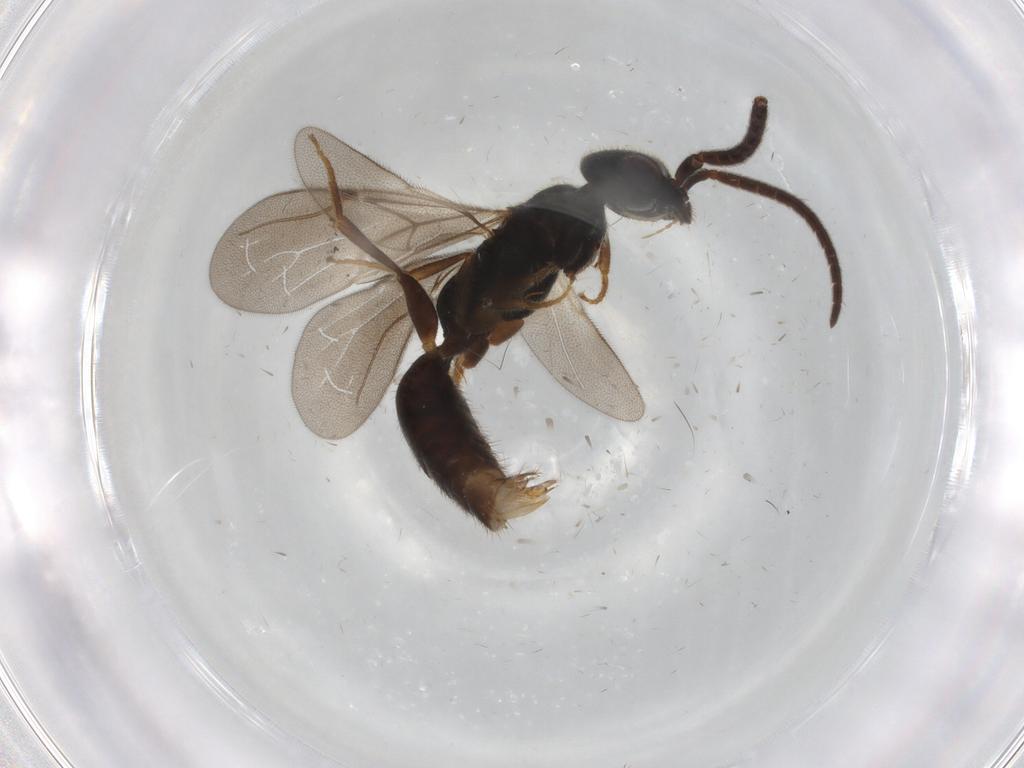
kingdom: Animalia
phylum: Arthropoda
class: Insecta
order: Hymenoptera
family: Bethylidae
